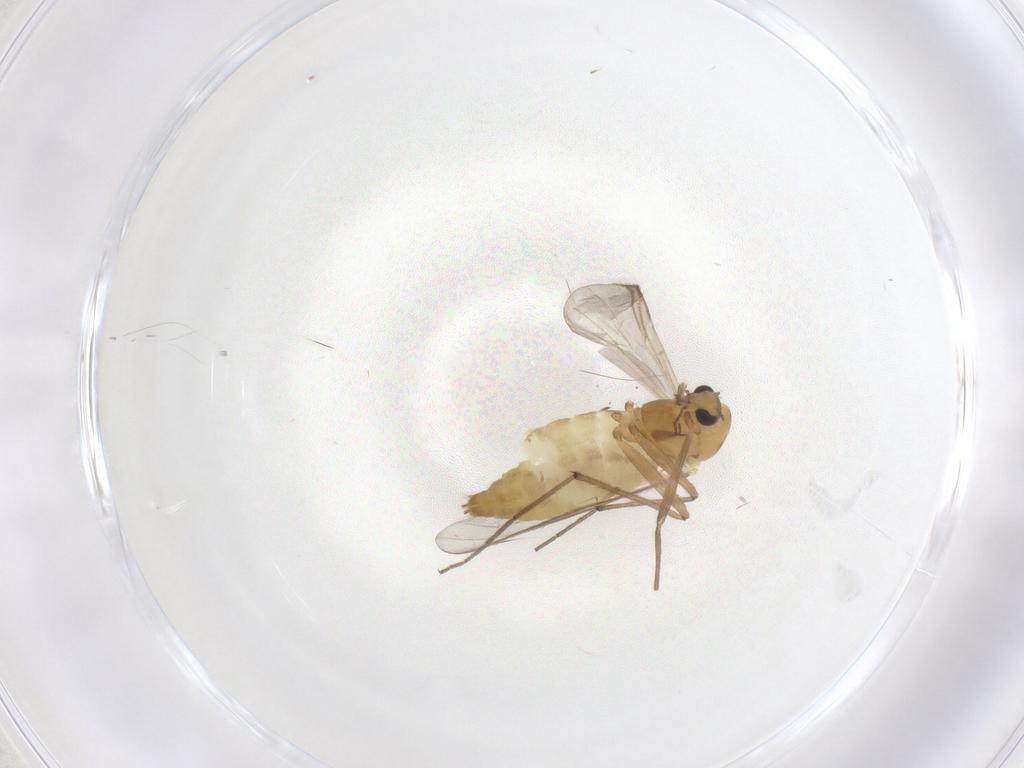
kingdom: Animalia
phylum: Arthropoda
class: Insecta
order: Diptera
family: Chironomidae
